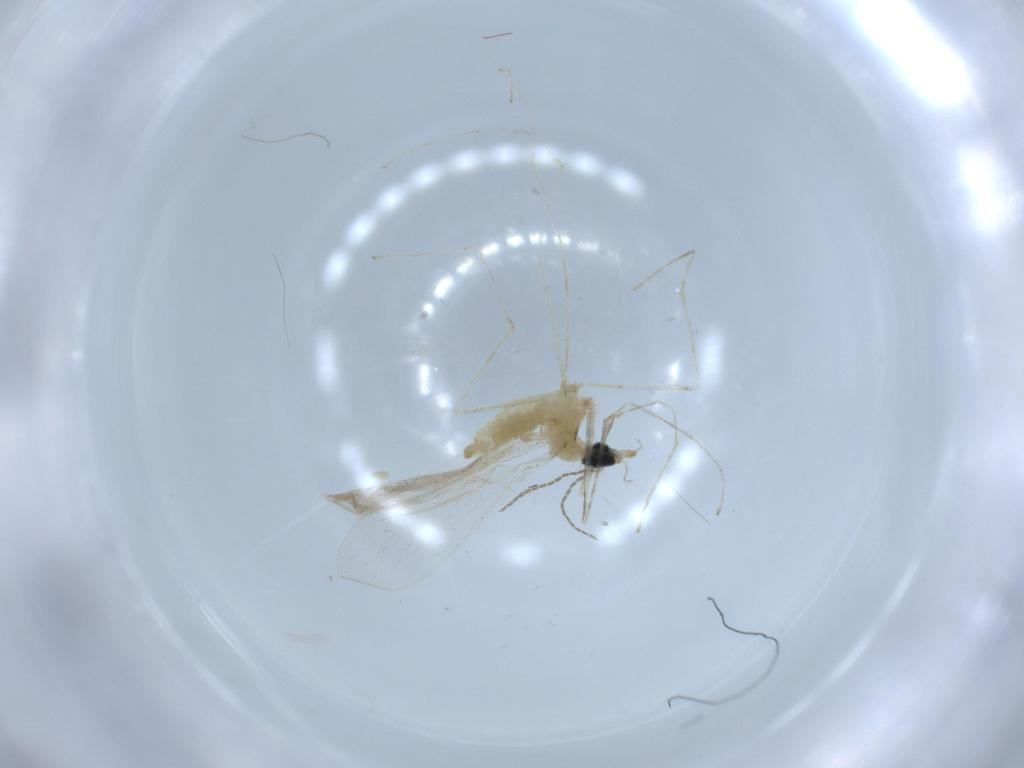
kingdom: Animalia
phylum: Arthropoda
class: Insecta
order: Diptera
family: Cecidomyiidae
